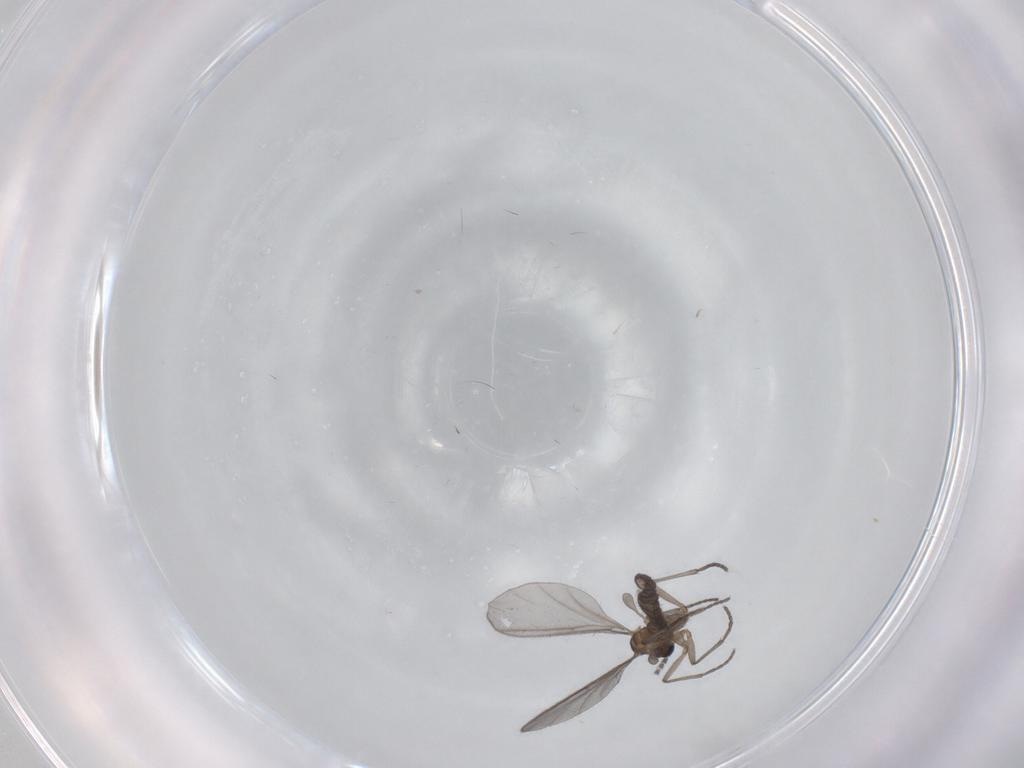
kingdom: Animalia
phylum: Arthropoda
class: Insecta
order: Diptera
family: Sciaridae
